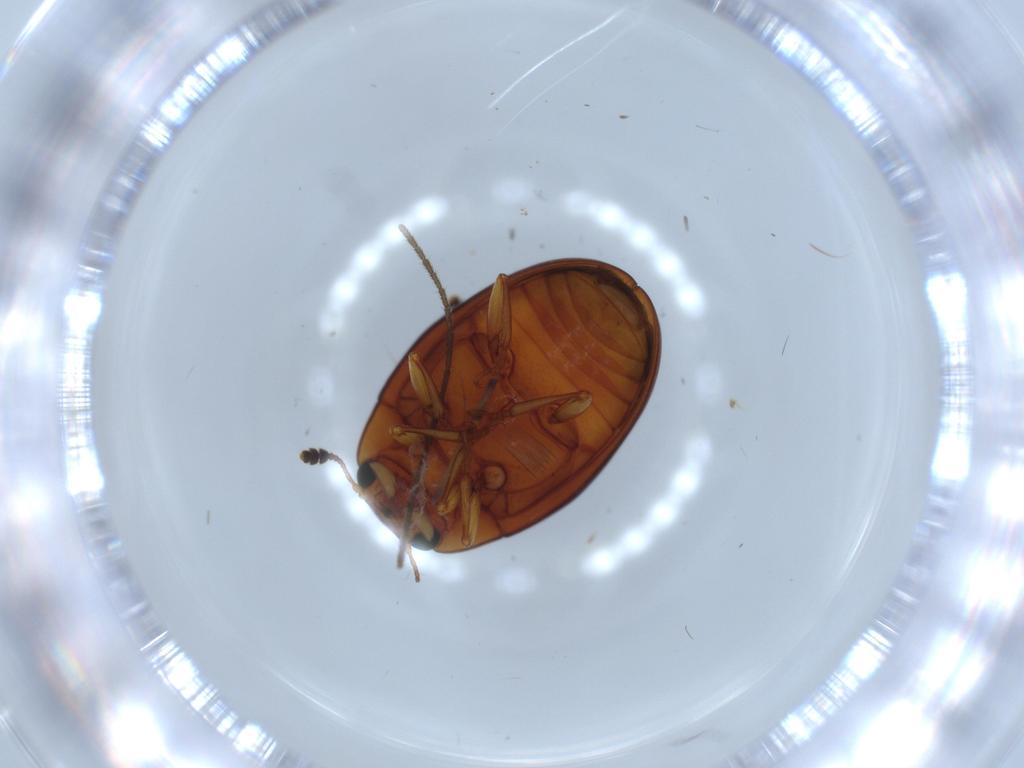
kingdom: Animalia
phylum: Arthropoda
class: Insecta
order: Coleoptera
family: Erotylidae
